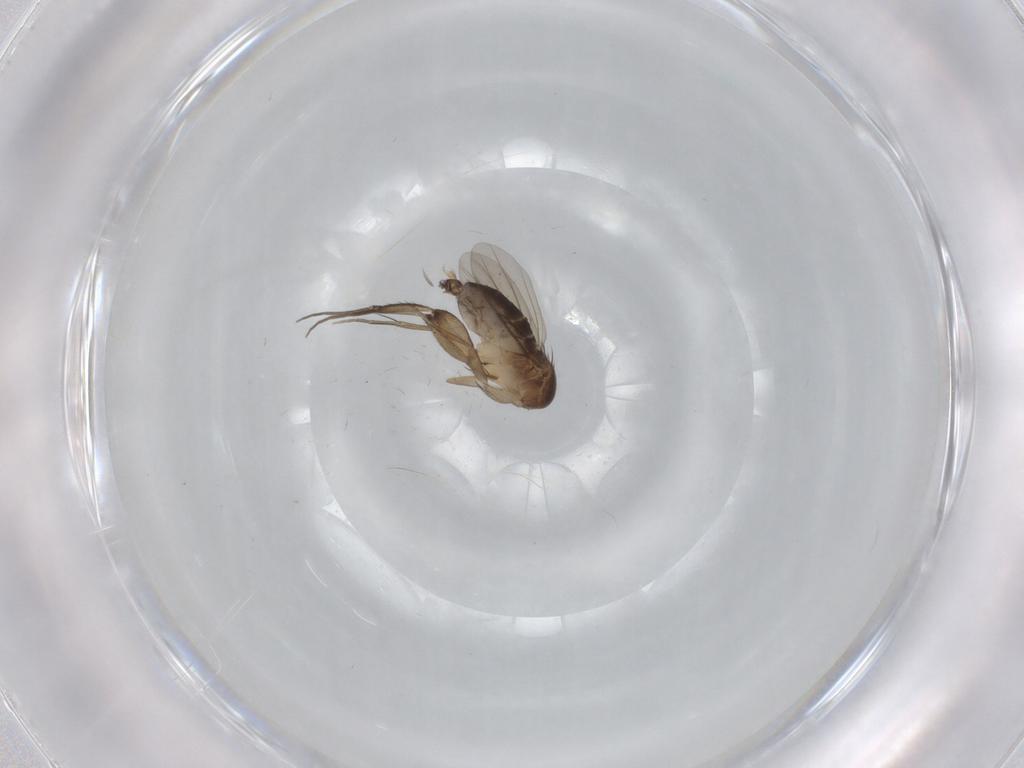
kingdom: Animalia
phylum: Arthropoda
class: Insecta
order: Diptera
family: Phoridae
